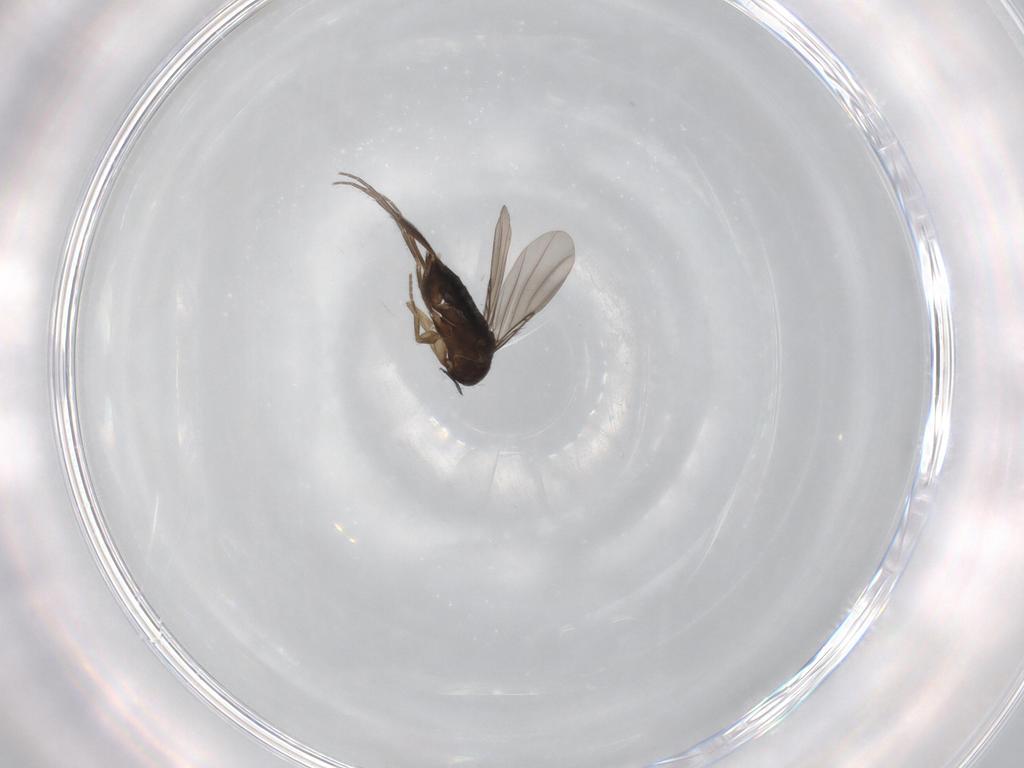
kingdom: Animalia
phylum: Arthropoda
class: Insecta
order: Diptera
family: Phoridae
